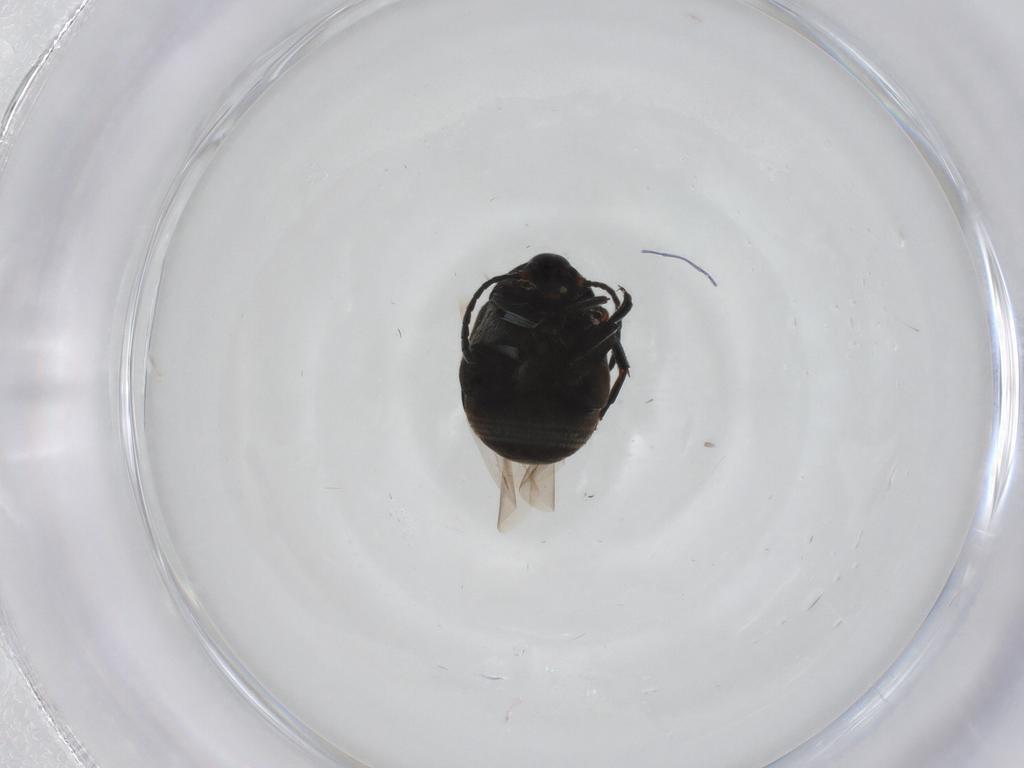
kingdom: Animalia
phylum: Arthropoda
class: Insecta
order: Coleoptera
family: Chrysomelidae
